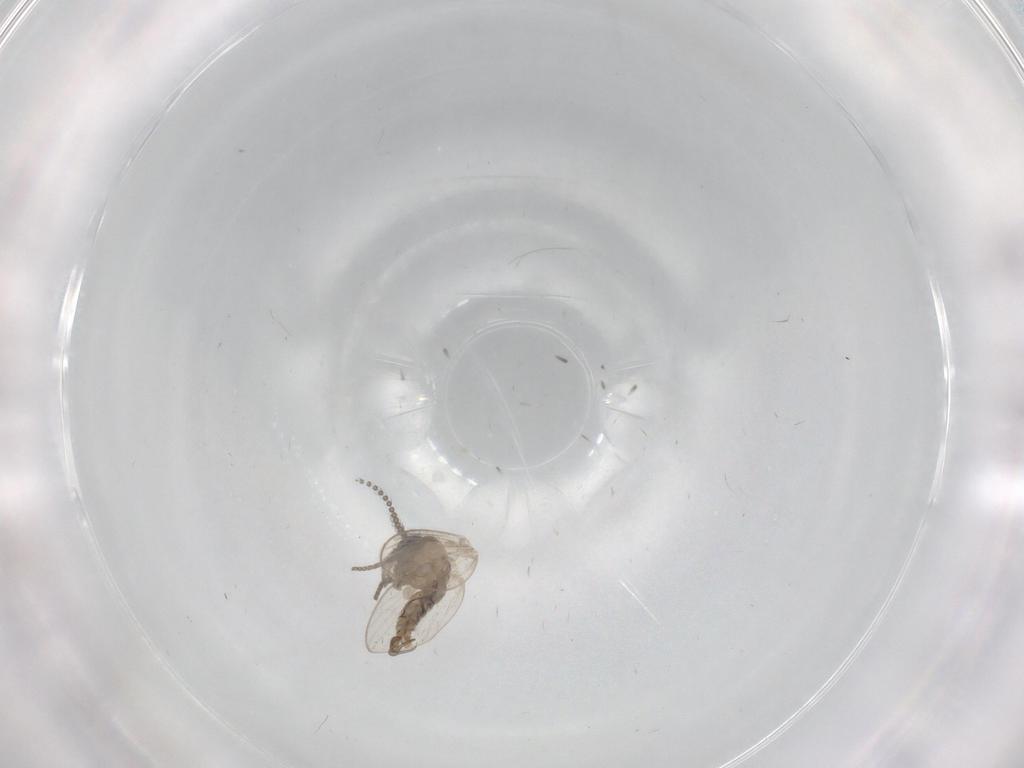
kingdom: Animalia
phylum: Arthropoda
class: Insecta
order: Diptera
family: Psychodidae
